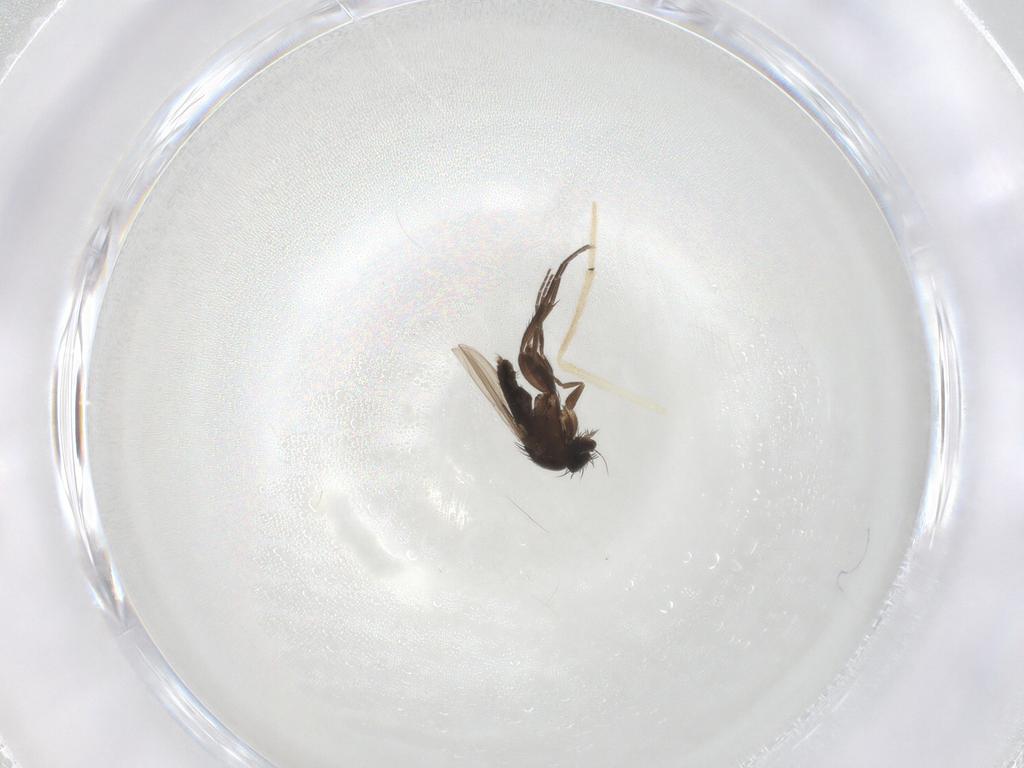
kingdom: Animalia
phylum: Arthropoda
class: Insecta
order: Diptera
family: Phoridae
